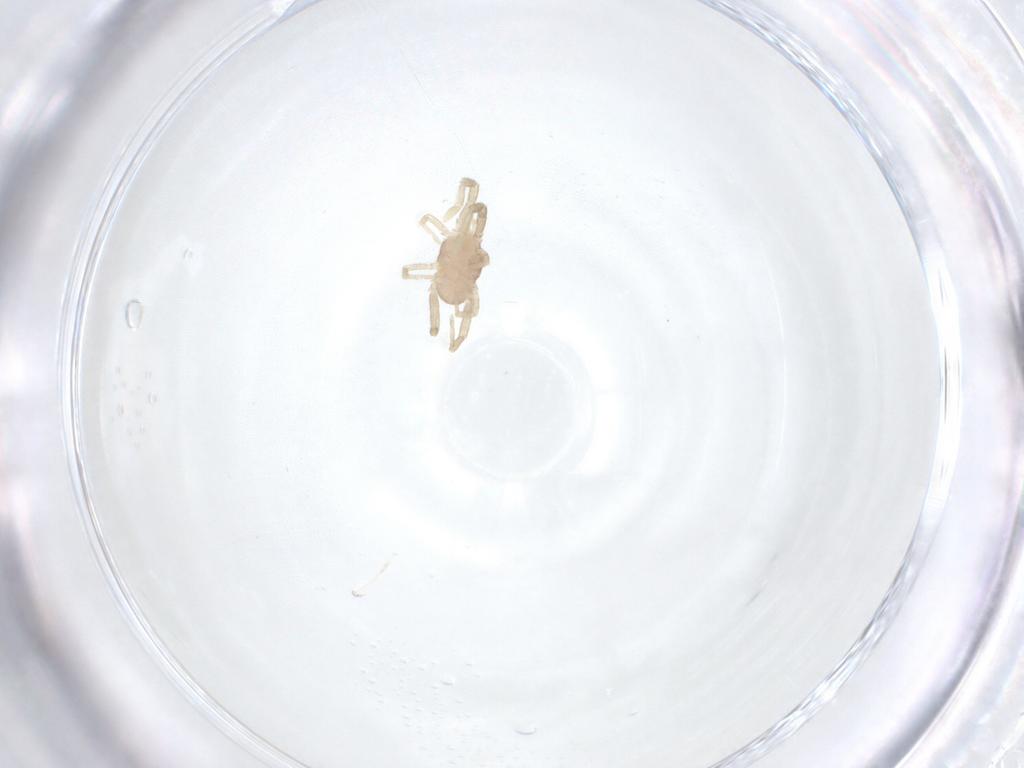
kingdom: Animalia
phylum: Arthropoda
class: Arachnida
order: Trombidiformes
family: Erythraeidae
